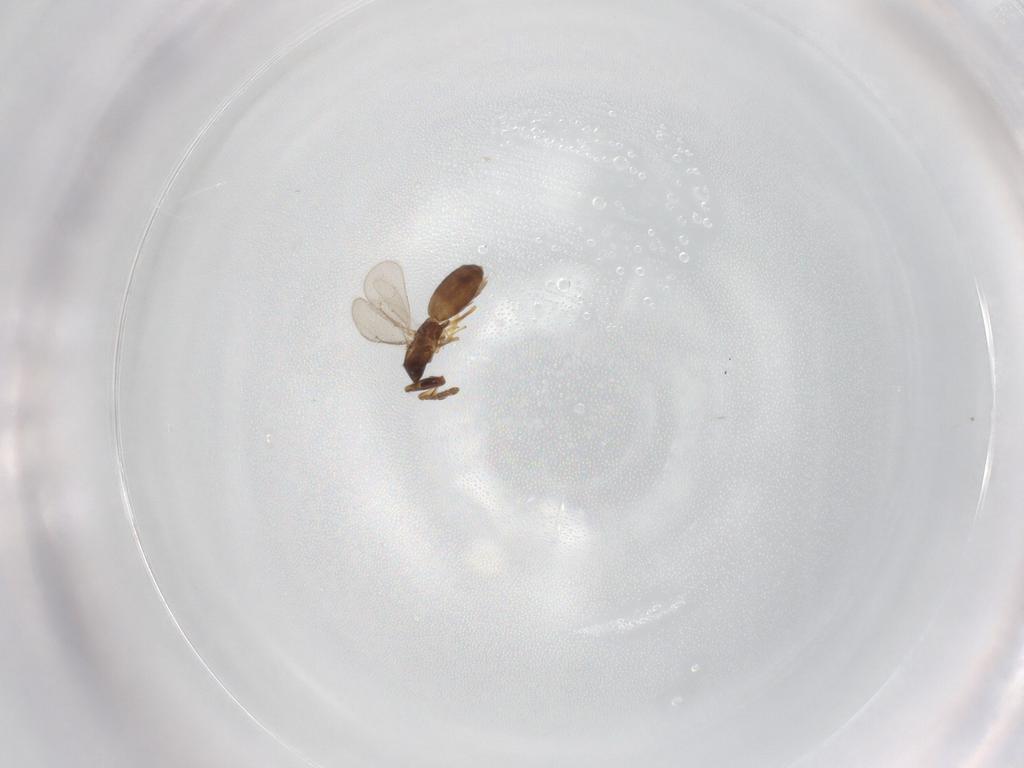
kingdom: Animalia
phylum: Arthropoda
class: Insecta
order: Hymenoptera
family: Eulophidae
